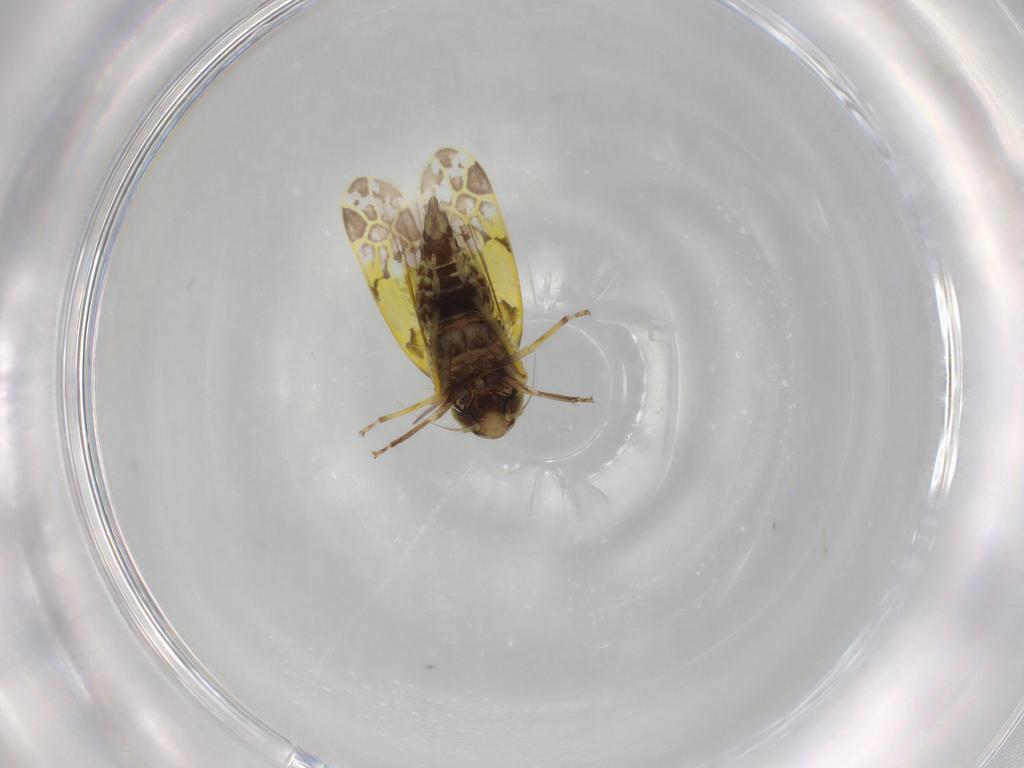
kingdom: Animalia
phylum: Arthropoda
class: Insecta
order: Hemiptera
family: Cicadellidae
